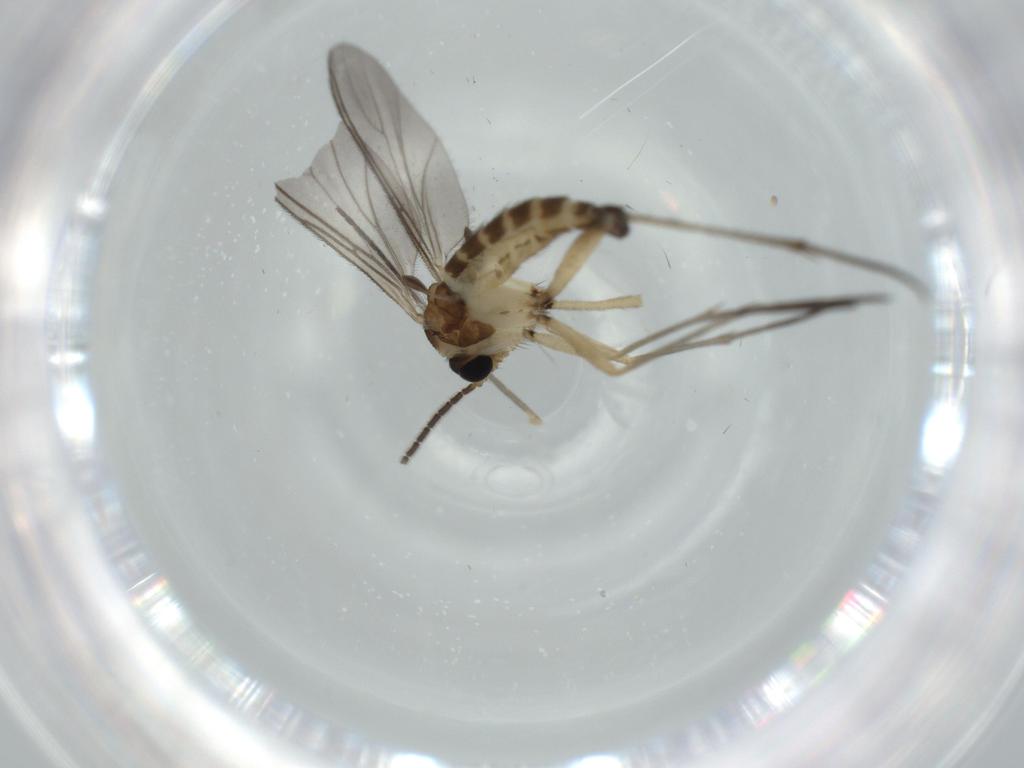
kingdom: Animalia
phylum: Arthropoda
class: Insecta
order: Diptera
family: Sciaridae
